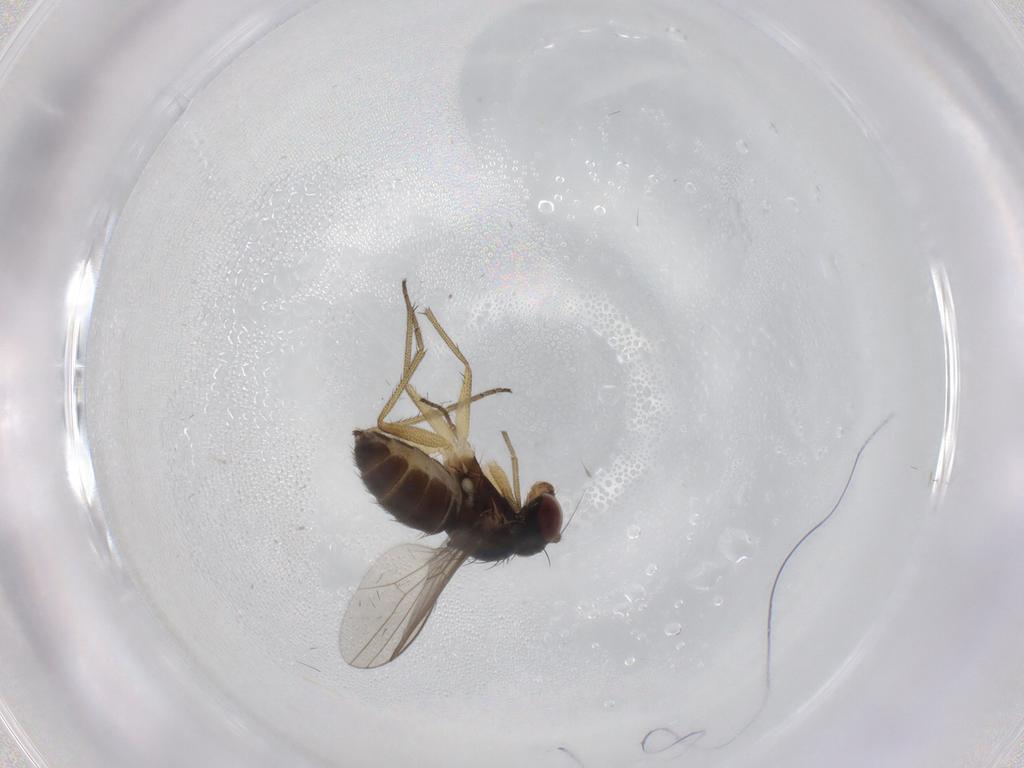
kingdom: Animalia
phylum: Arthropoda
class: Insecta
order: Diptera
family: Dolichopodidae
